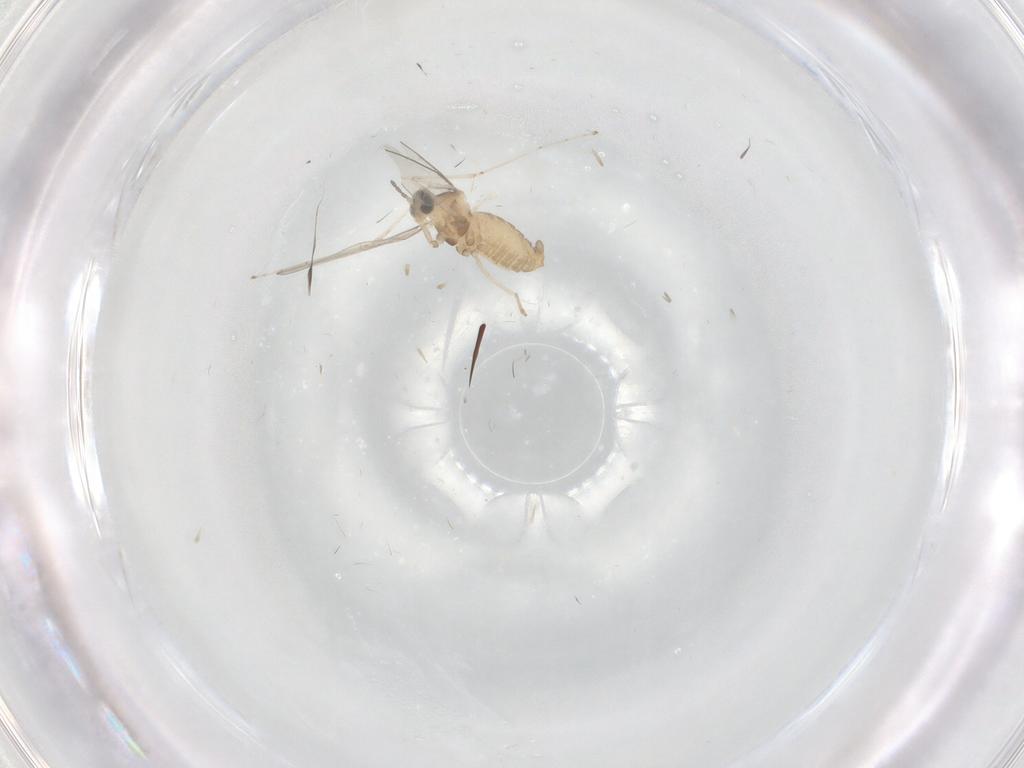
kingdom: Animalia
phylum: Arthropoda
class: Insecta
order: Diptera
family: Cecidomyiidae
